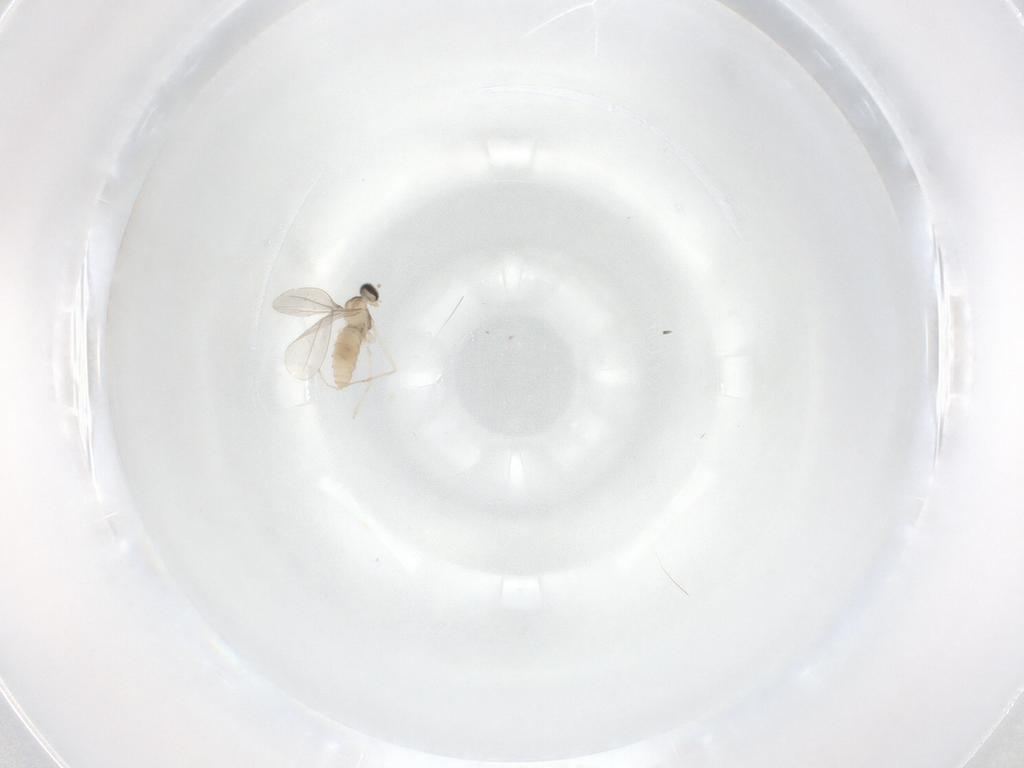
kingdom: Animalia
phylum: Arthropoda
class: Insecta
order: Diptera
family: Cecidomyiidae
